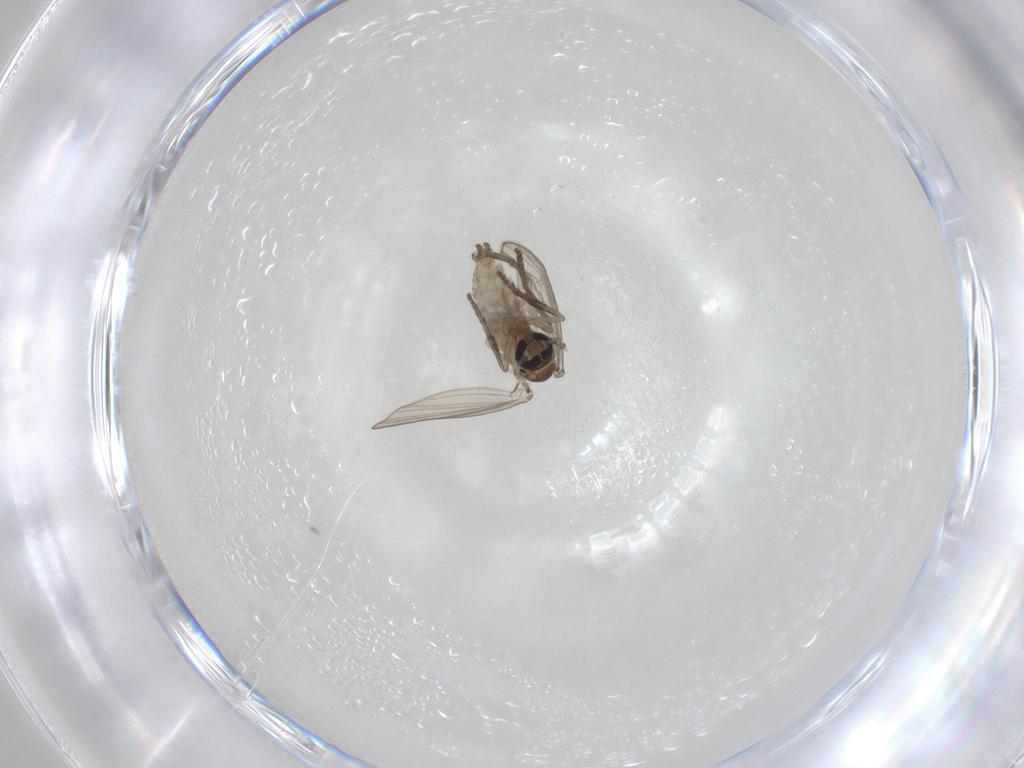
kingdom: Animalia
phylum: Arthropoda
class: Insecta
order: Diptera
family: Psychodidae
